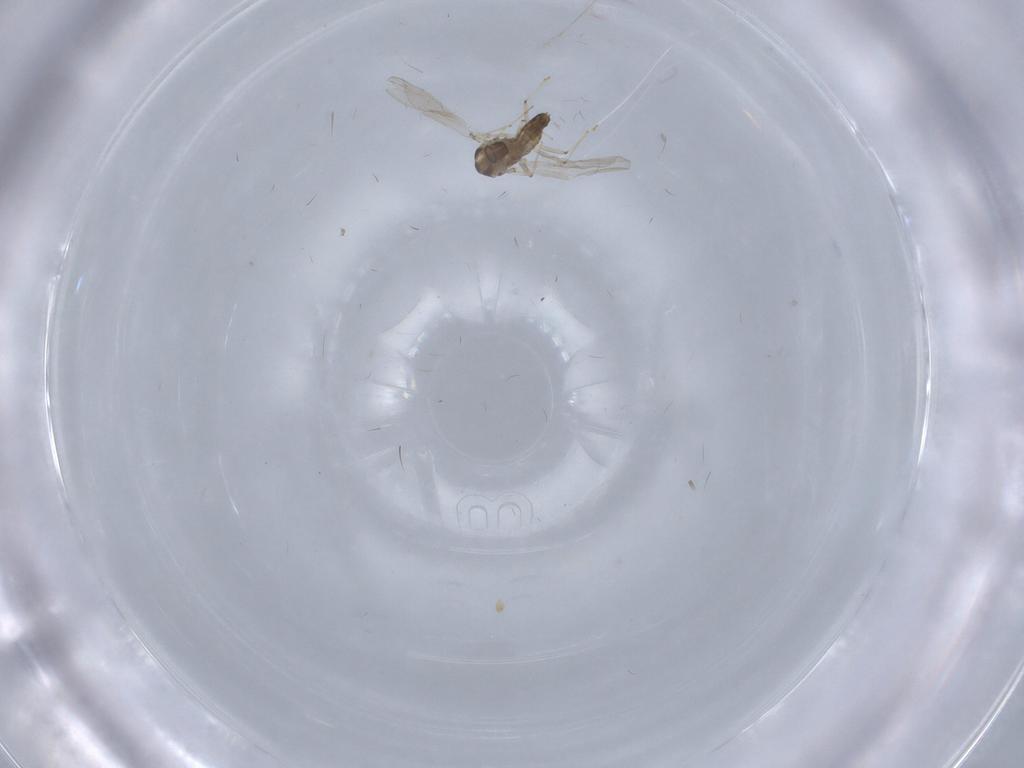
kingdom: Animalia
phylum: Arthropoda
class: Insecta
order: Diptera
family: Chironomidae
